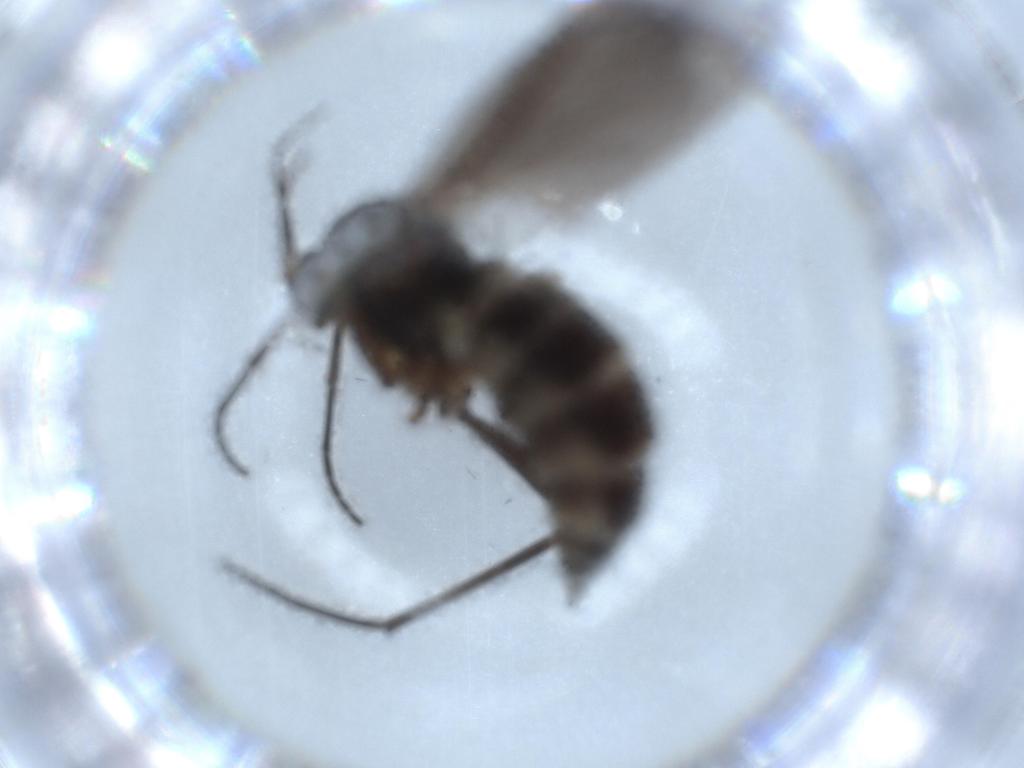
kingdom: Animalia
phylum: Arthropoda
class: Insecta
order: Diptera
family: Sciaridae
